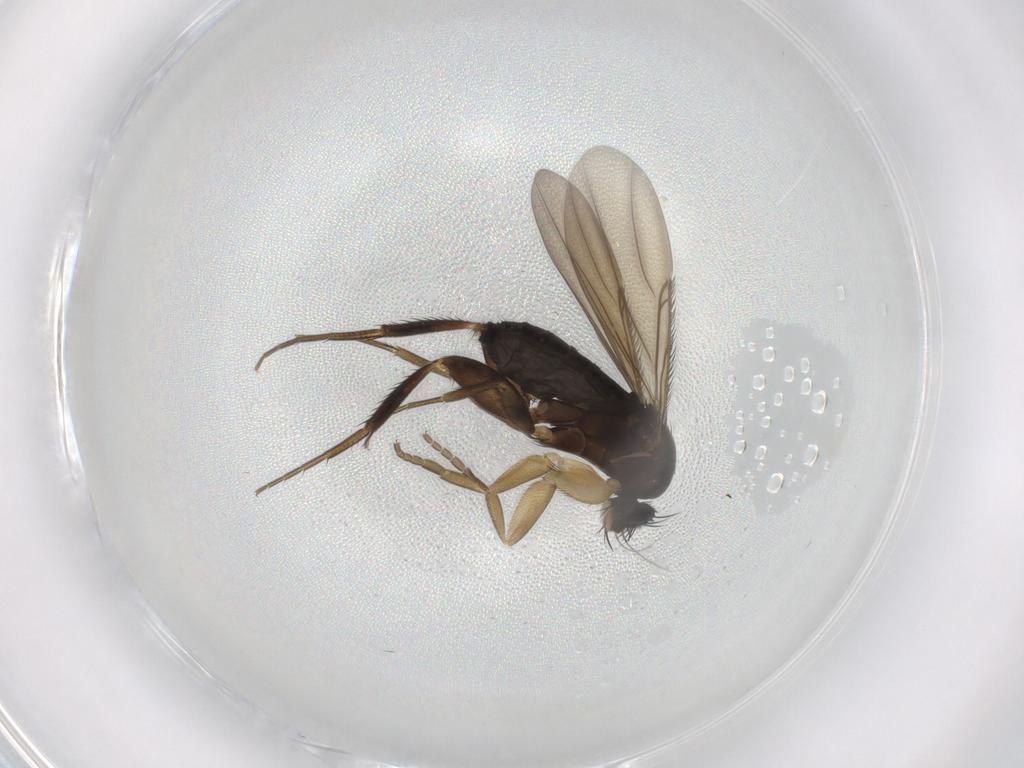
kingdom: Animalia
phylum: Arthropoda
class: Insecta
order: Diptera
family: Phoridae
